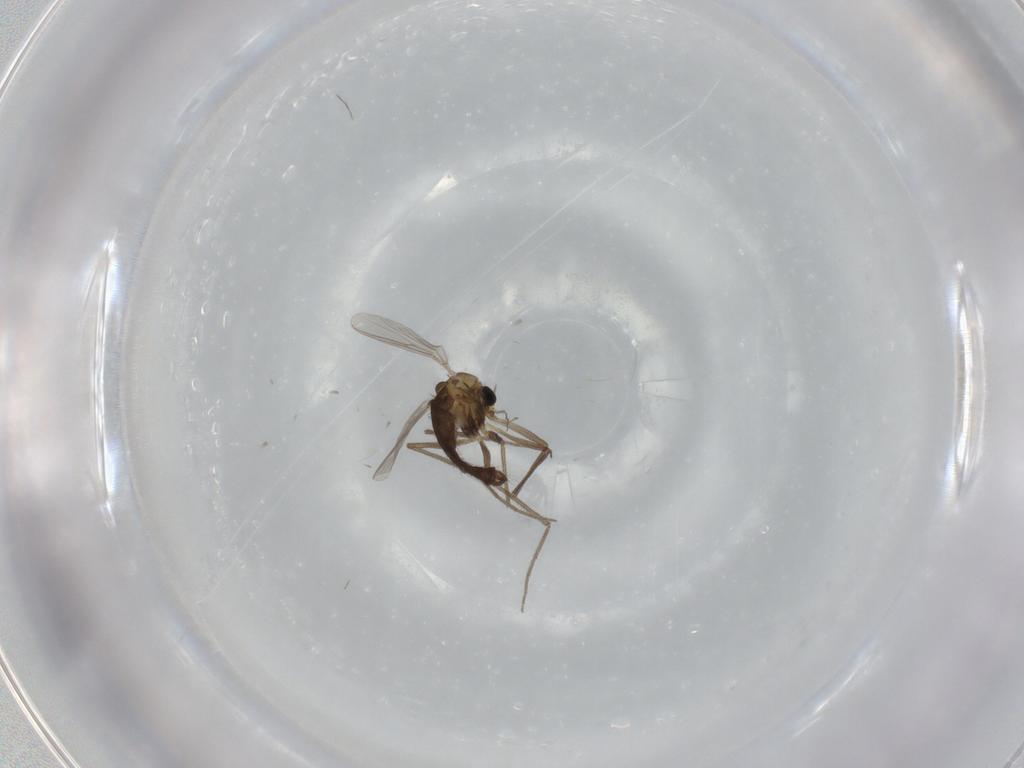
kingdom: Animalia
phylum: Arthropoda
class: Insecta
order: Diptera
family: Chironomidae
